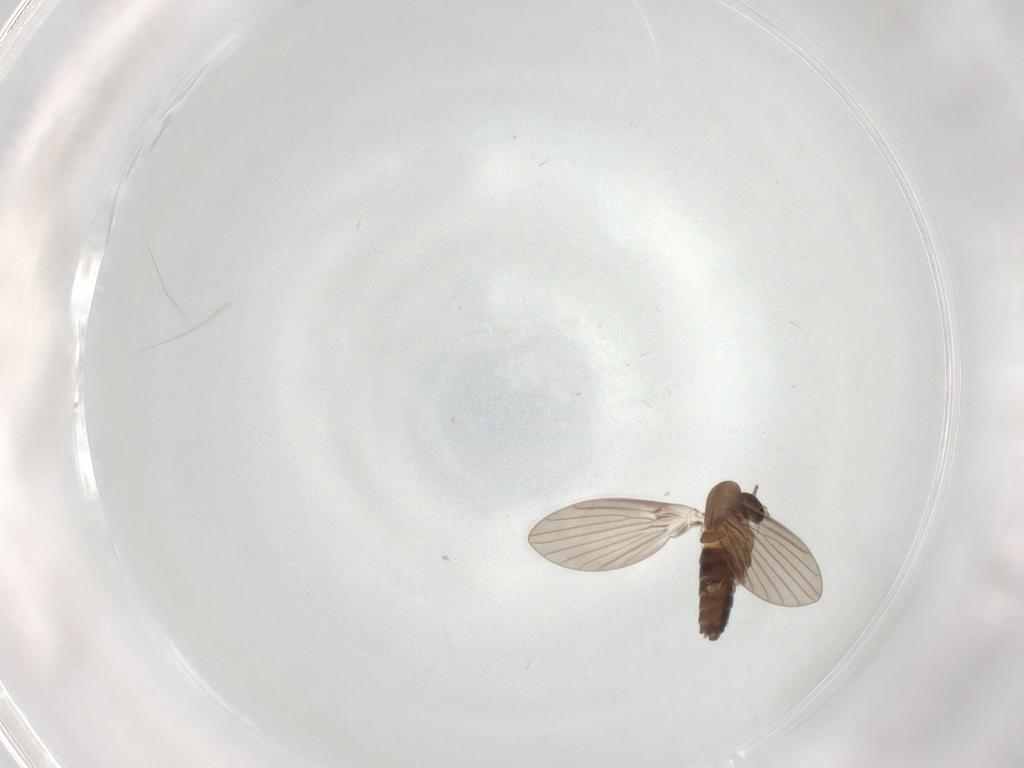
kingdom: Animalia
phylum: Arthropoda
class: Insecta
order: Diptera
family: Psychodidae
